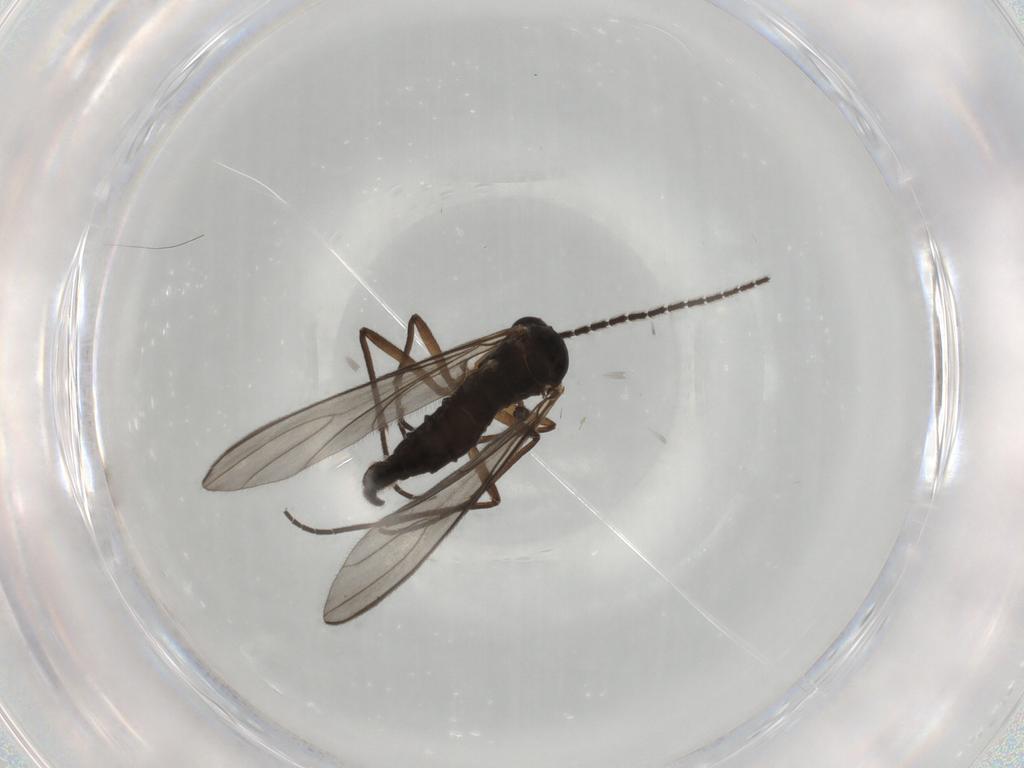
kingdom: Animalia
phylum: Arthropoda
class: Insecta
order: Diptera
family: Sciaridae
